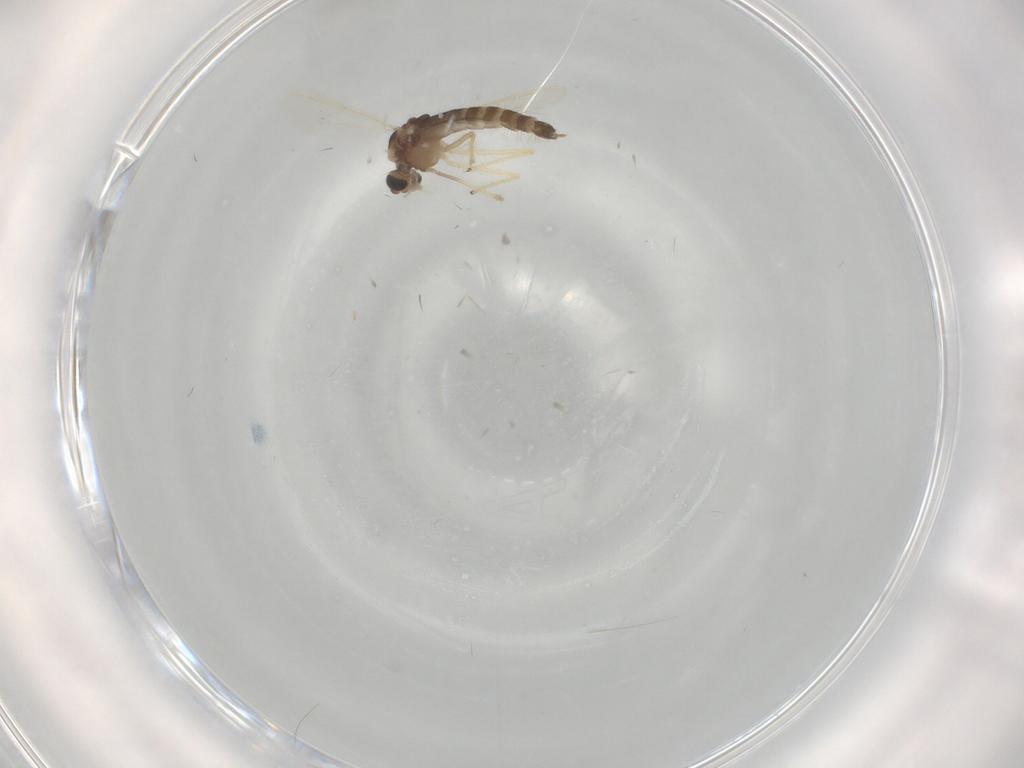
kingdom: Animalia
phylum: Arthropoda
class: Insecta
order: Diptera
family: Chironomidae
